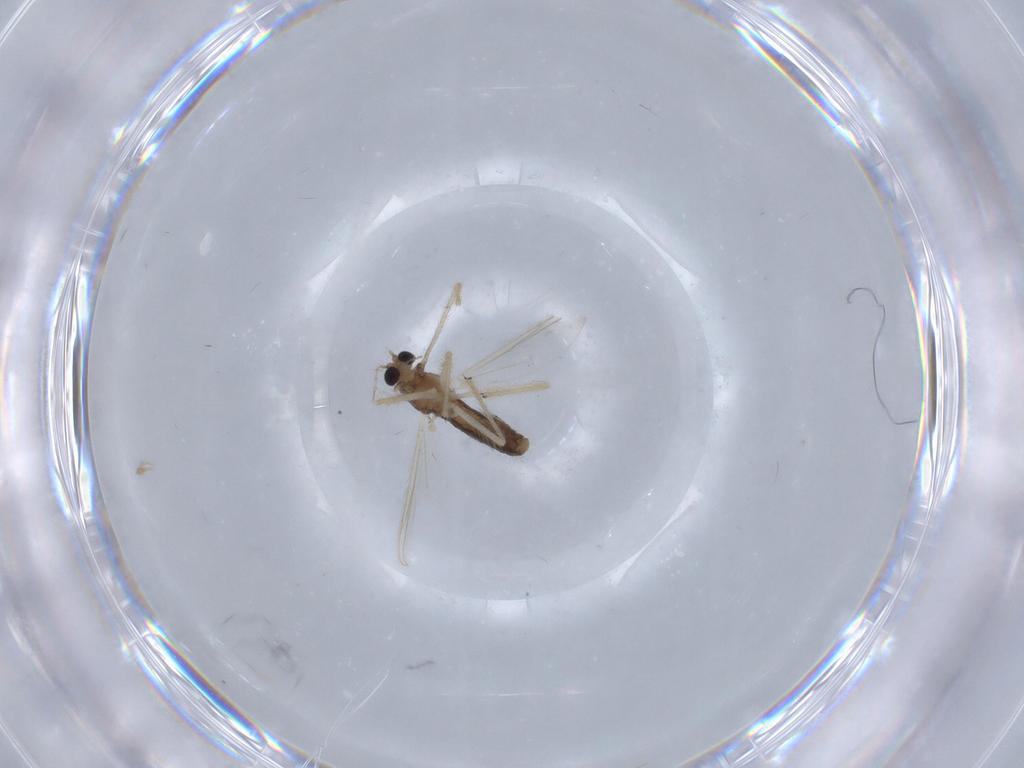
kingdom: Animalia
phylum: Arthropoda
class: Insecta
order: Diptera
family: Chironomidae
